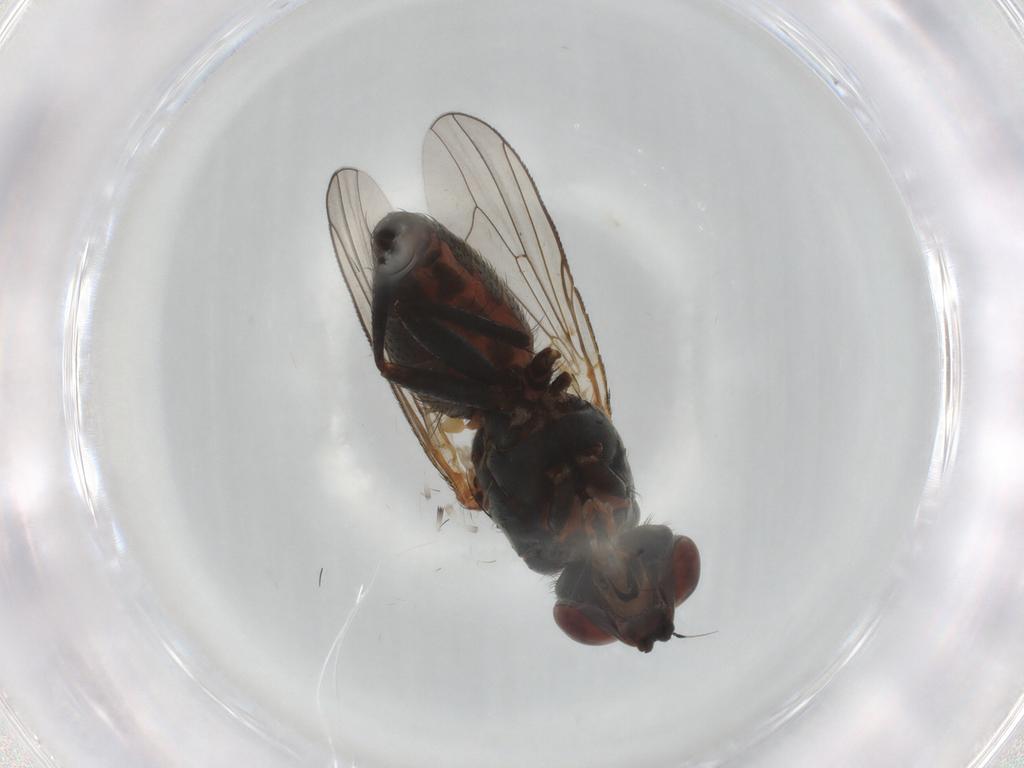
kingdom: Animalia
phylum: Arthropoda
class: Insecta
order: Diptera
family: Anthomyiidae
